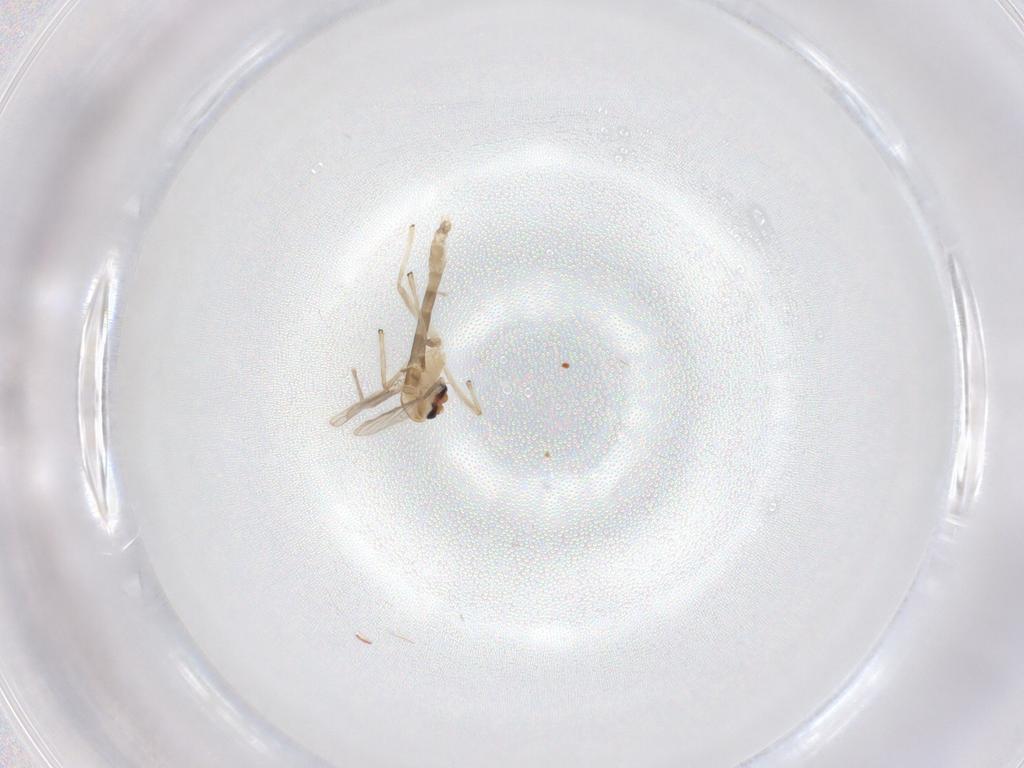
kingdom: Animalia
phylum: Arthropoda
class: Insecta
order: Diptera
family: Chironomidae
